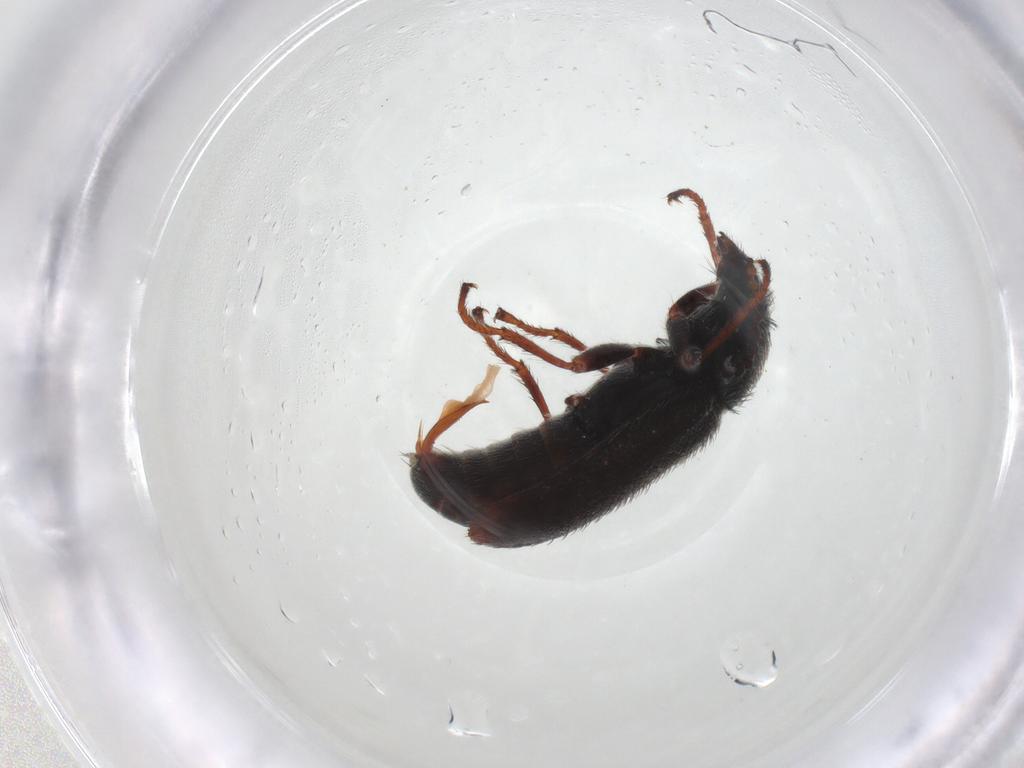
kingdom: Animalia
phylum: Arthropoda
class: Insecta
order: Coleoptera
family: Melyridae
